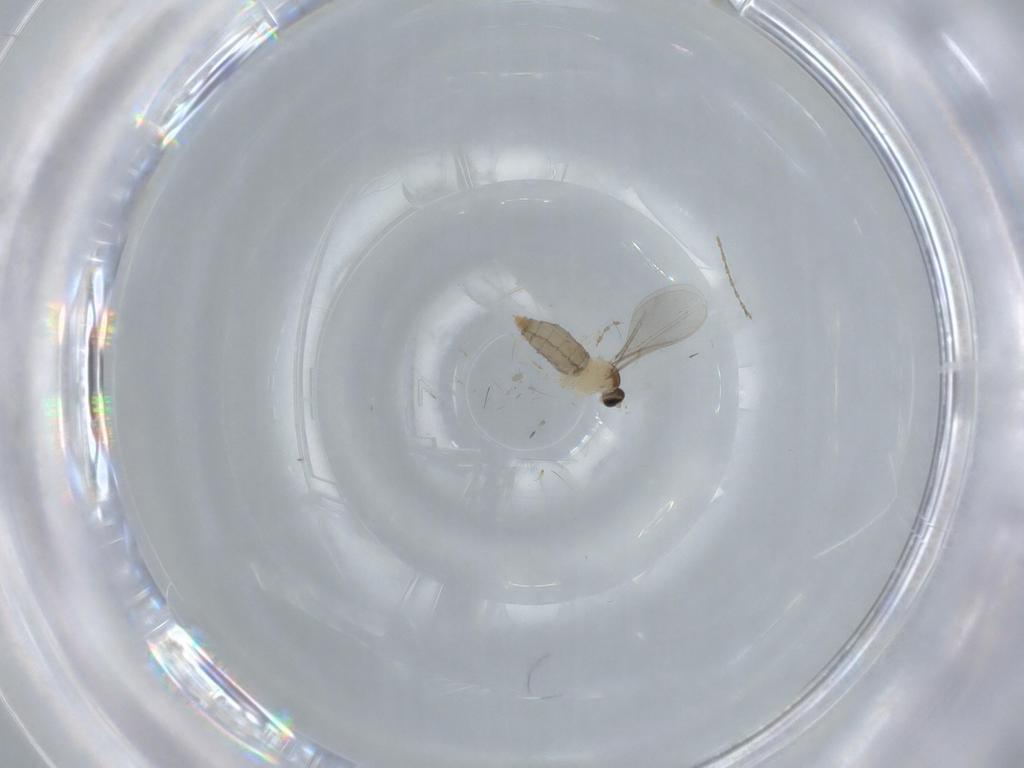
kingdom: Animalia
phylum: Arthropoda
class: Insecta
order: Diptera
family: Cecidomyiidae
